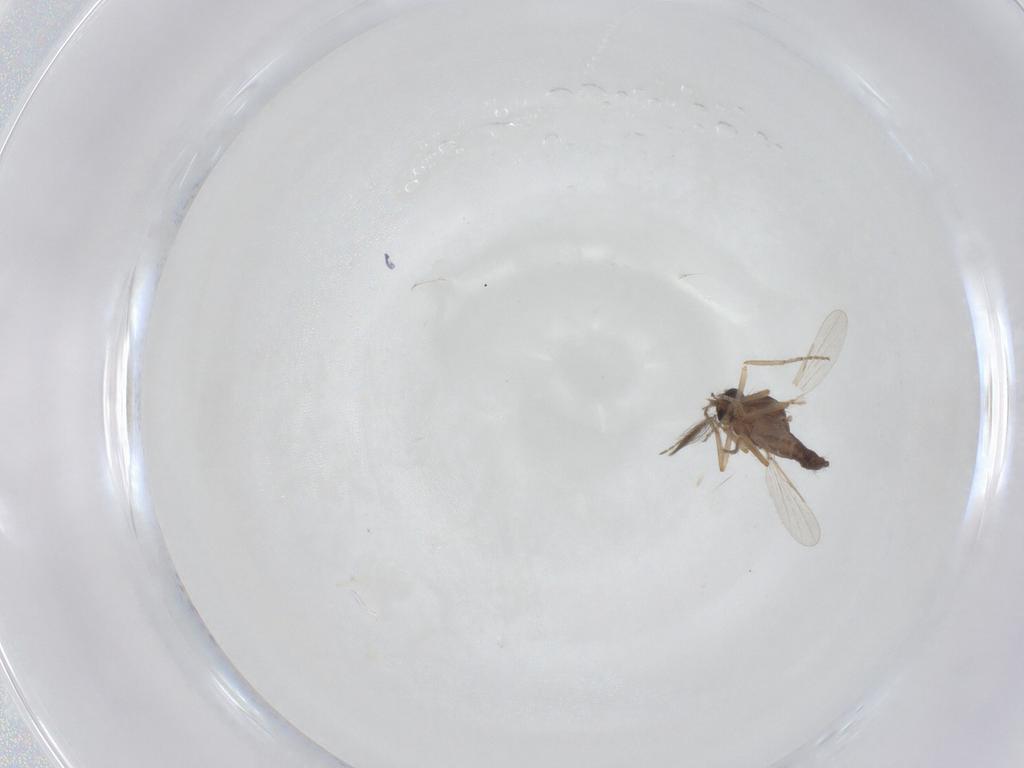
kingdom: Animalia
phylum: Arthropoda
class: Insecta
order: Diptera
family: Ceratopogonidae
